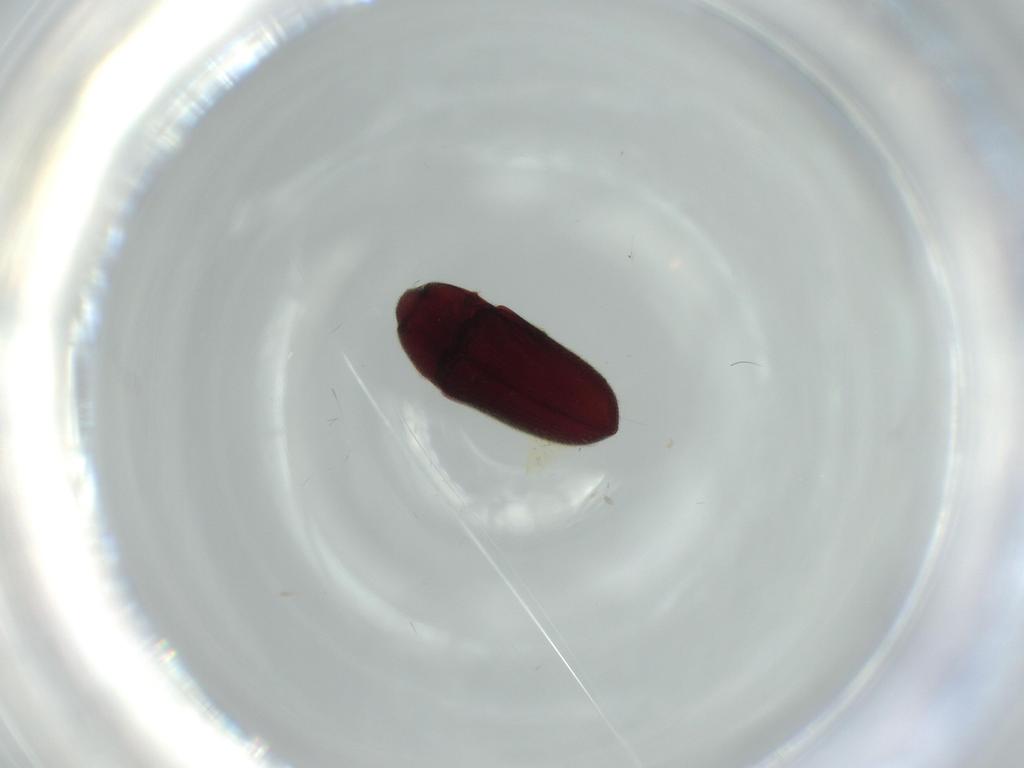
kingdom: Animalia
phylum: Arthropoda
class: Insecta
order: Coleoptera
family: Throscidae
